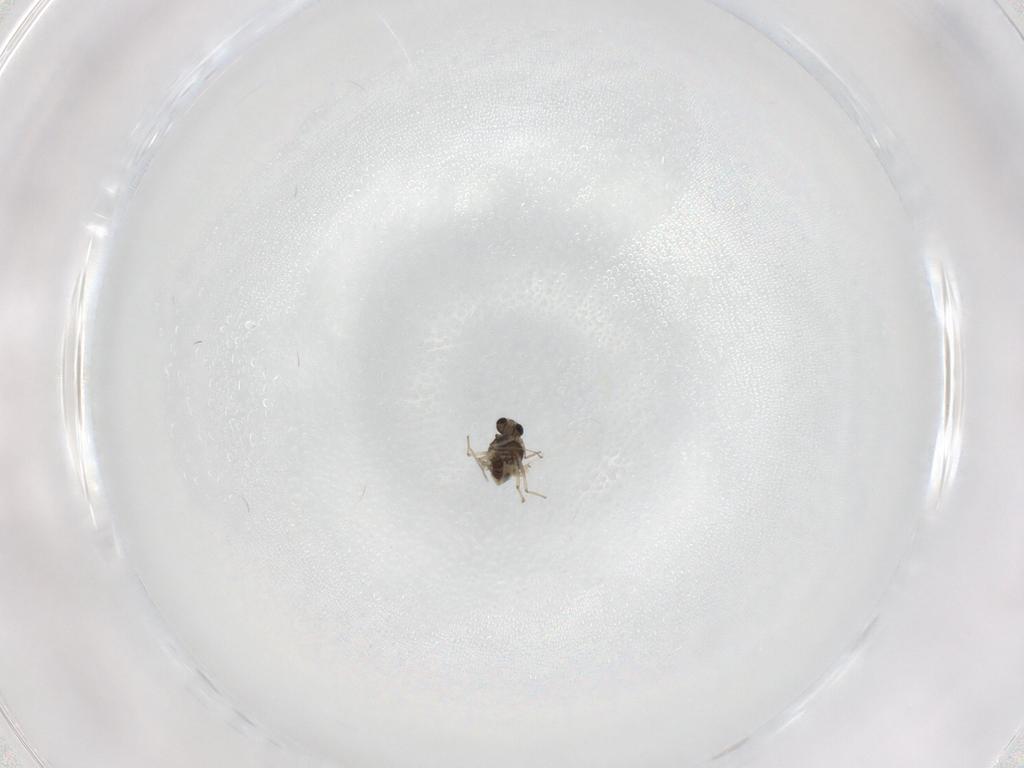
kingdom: Animalia
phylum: Arthropoda
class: Insecta
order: Diptera
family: Chironomidae
